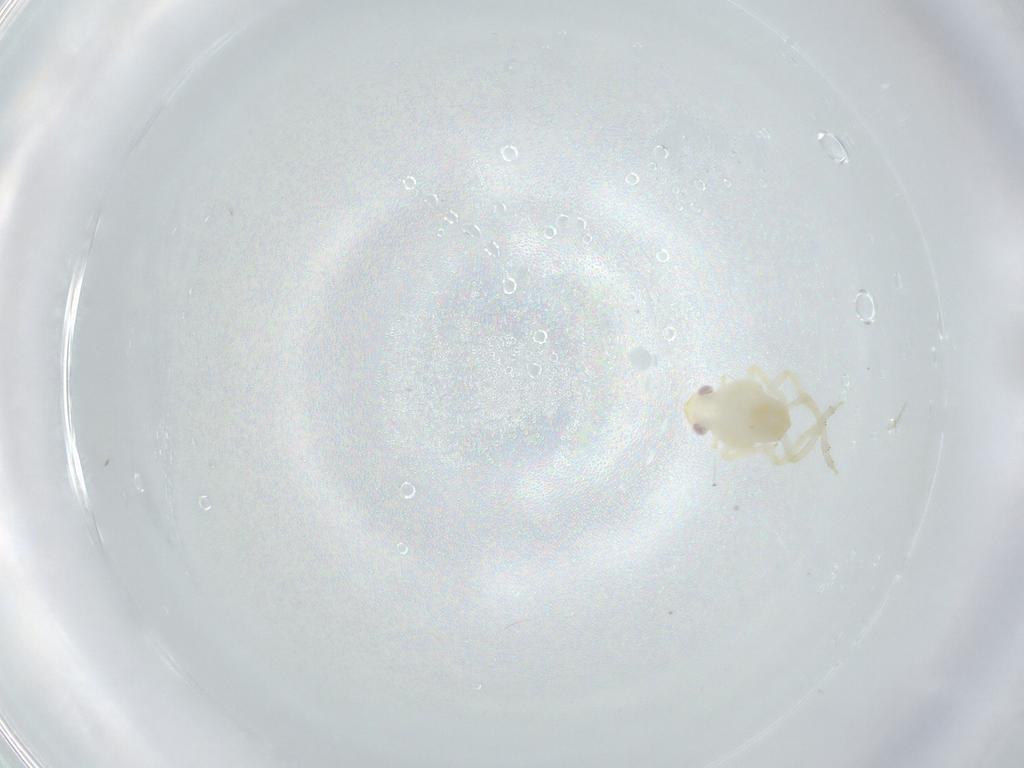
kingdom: Animalia
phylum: Arthropoda
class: Insecta
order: Hemiptera
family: Tropiduchidae
